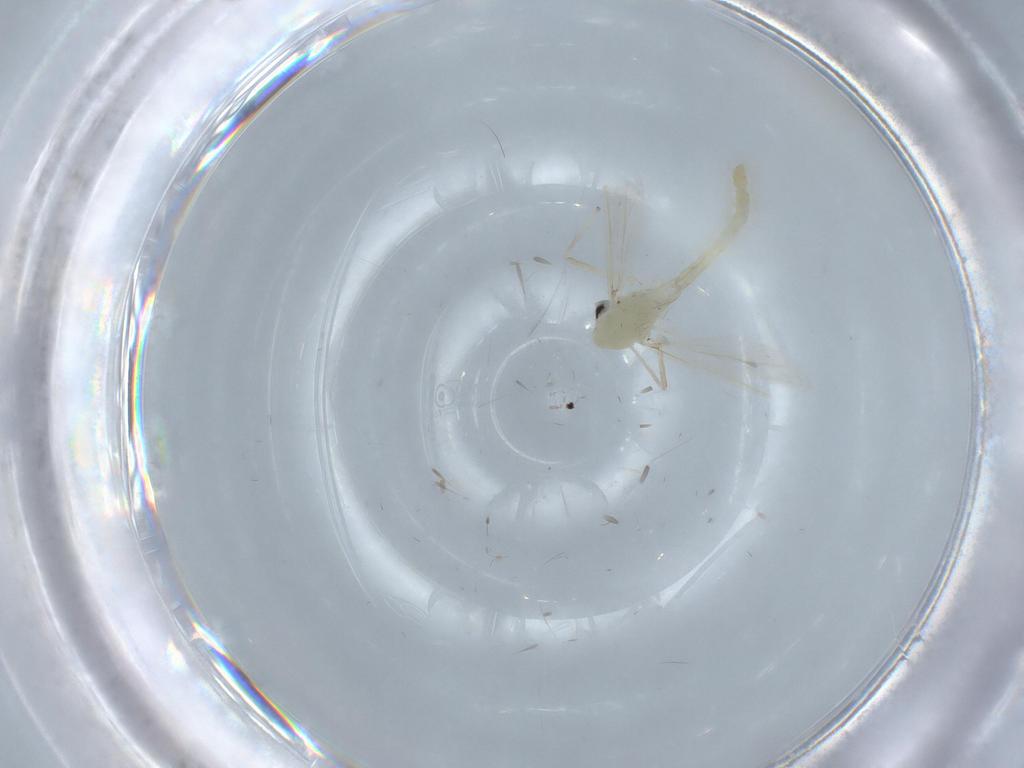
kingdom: Animalia
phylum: Arthropoda
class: Insecta
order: Diptera
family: Chironomidae
